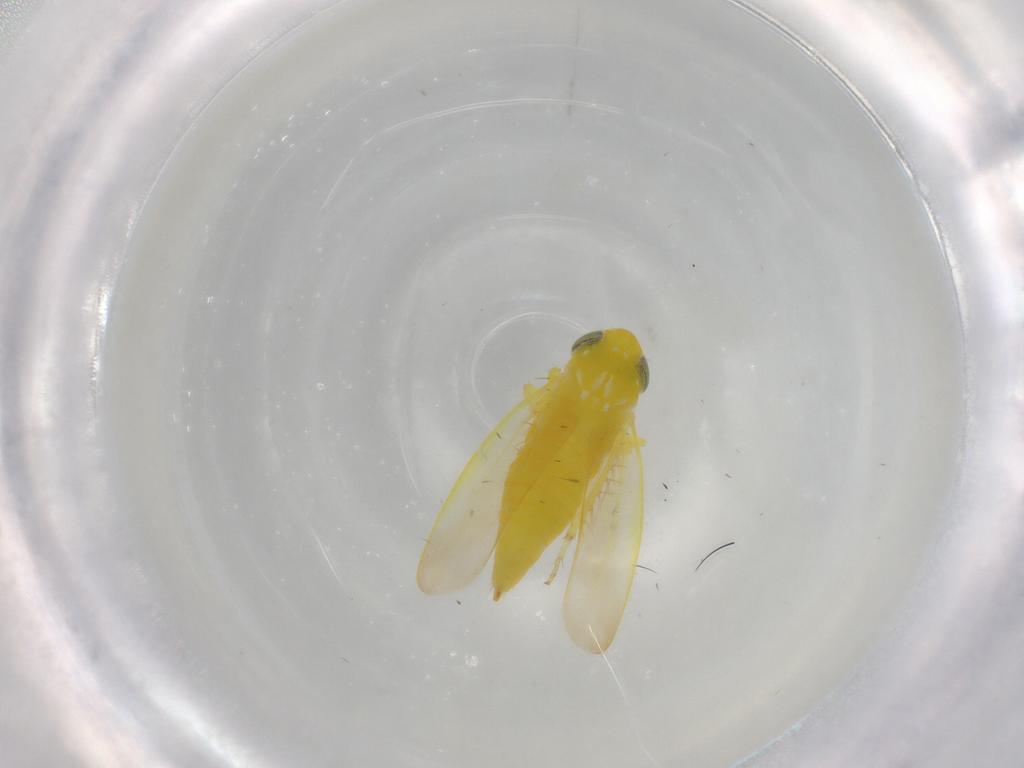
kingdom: Animalia
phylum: Arthropoda
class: Insecta
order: Hemiptera
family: Cicadellidae
